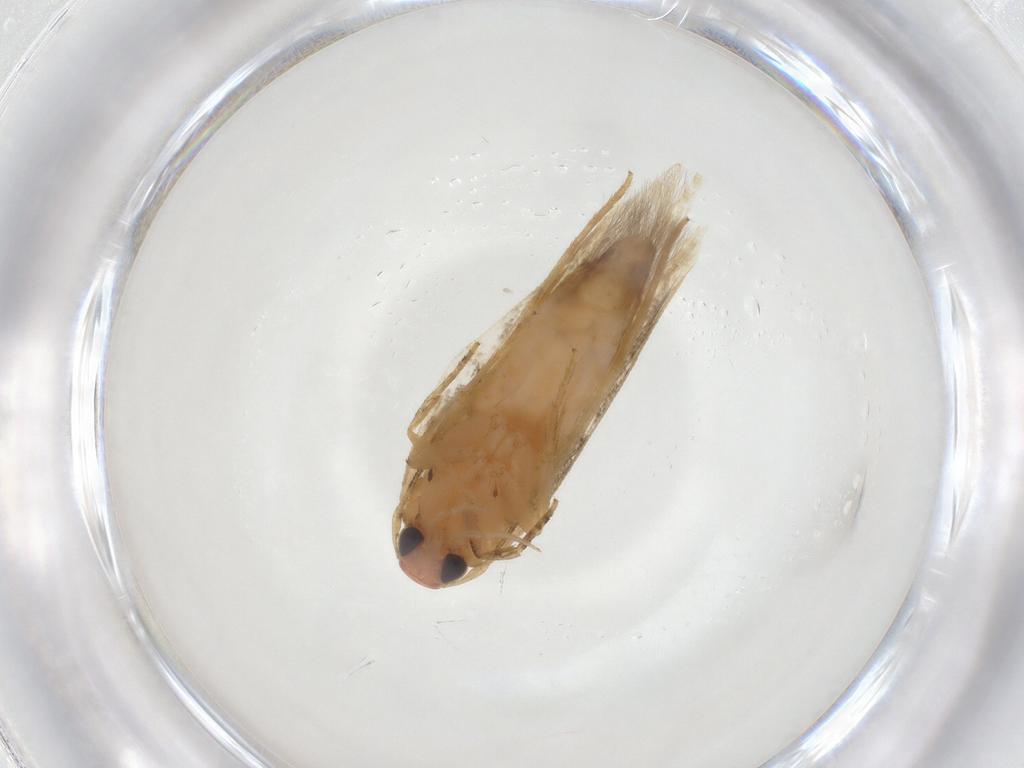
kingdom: Animalia
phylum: Arthropoda
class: Insecta
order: Lepidoptera
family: Cosmopterigidae
